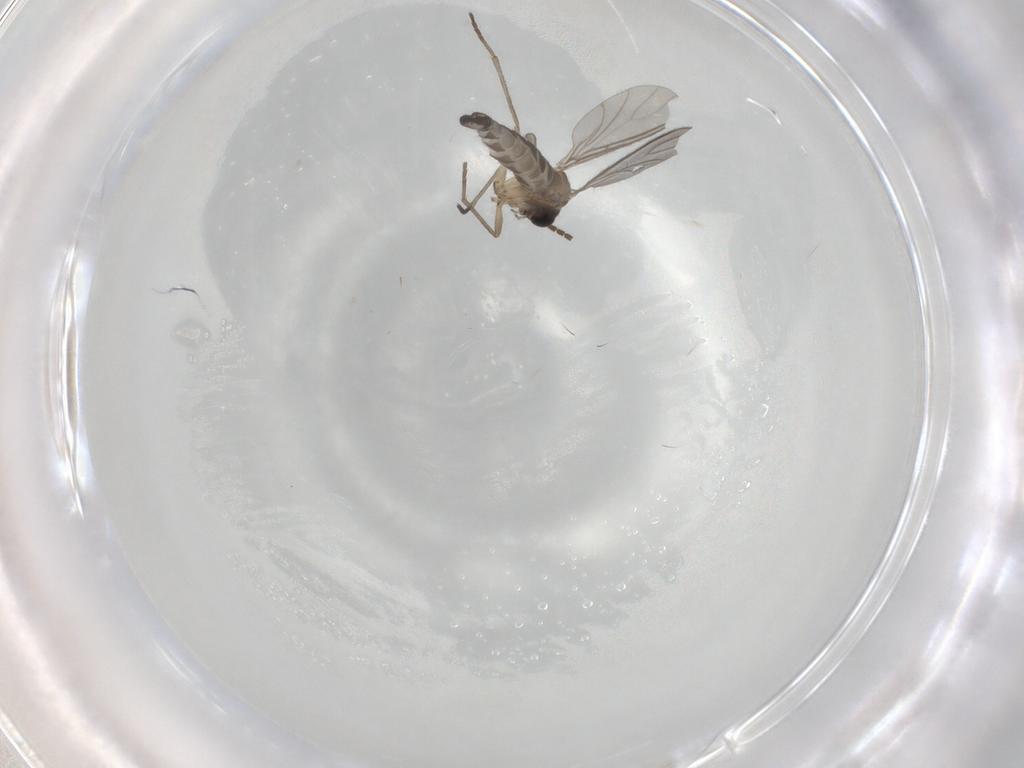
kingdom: Animalia
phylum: Arthropoda
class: Insecta
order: Diptera
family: Sciaridae
